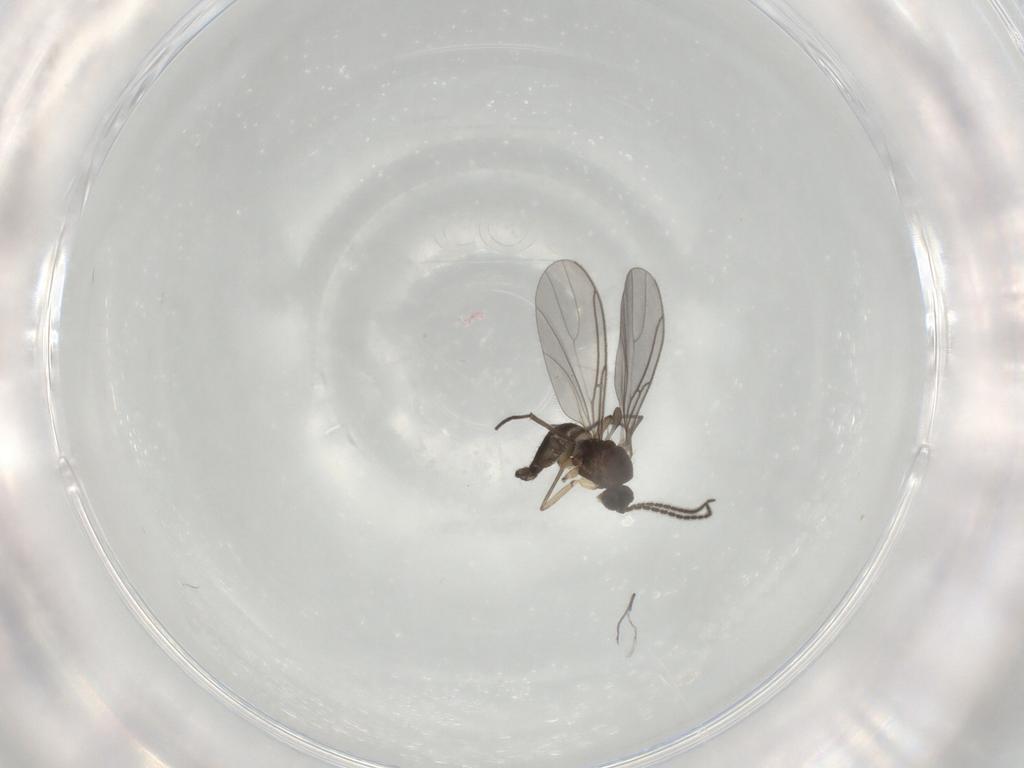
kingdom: Animalia
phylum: Arthropoda
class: Insecta
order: Diptera
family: Sciaridae
